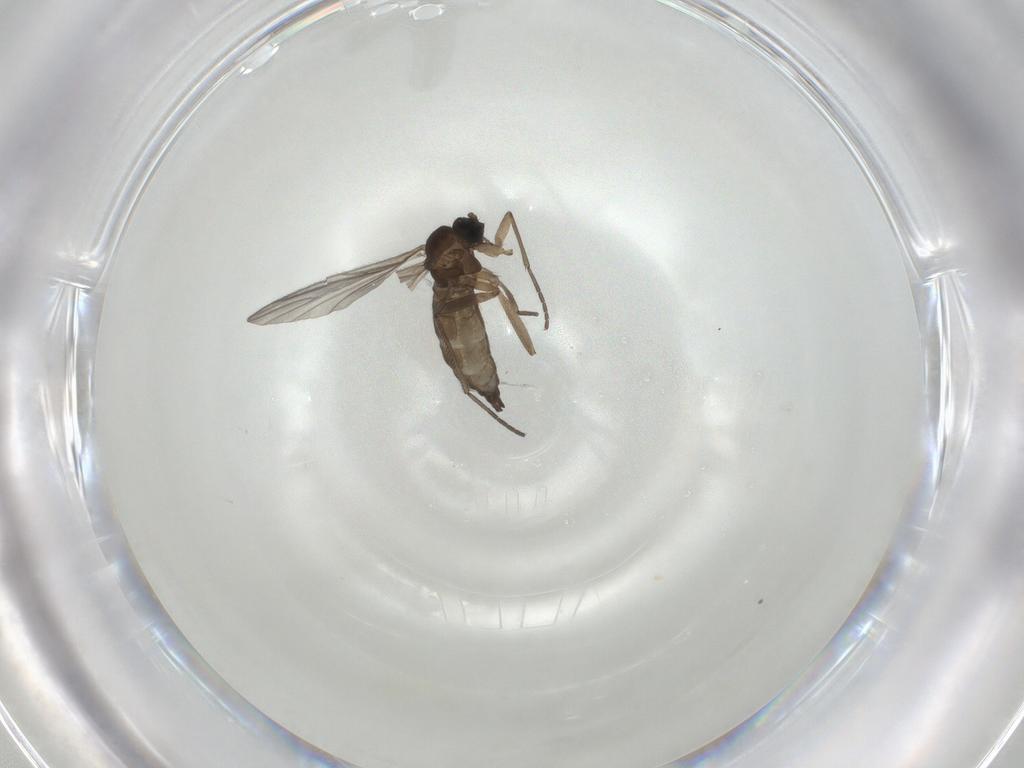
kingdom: Animalia
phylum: Arthropoda
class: Insecta
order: Diptera
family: Sciaridae
